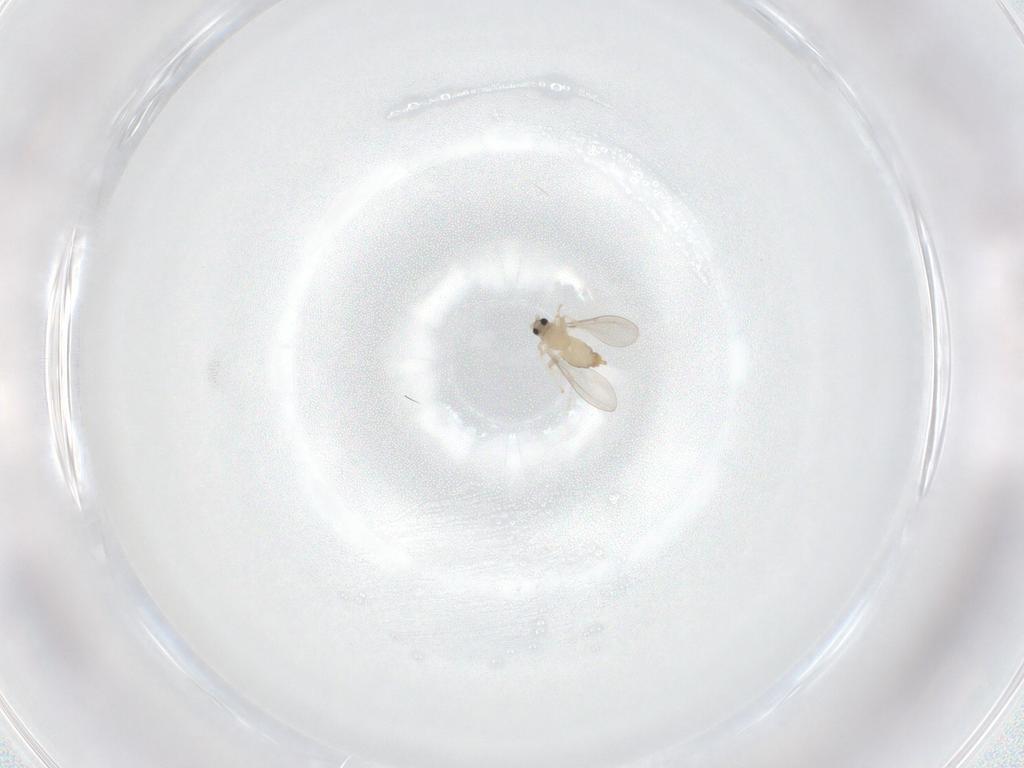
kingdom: Animalia
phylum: Arthropoda
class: Insecta
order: Diptera
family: Cecidomyiidae
